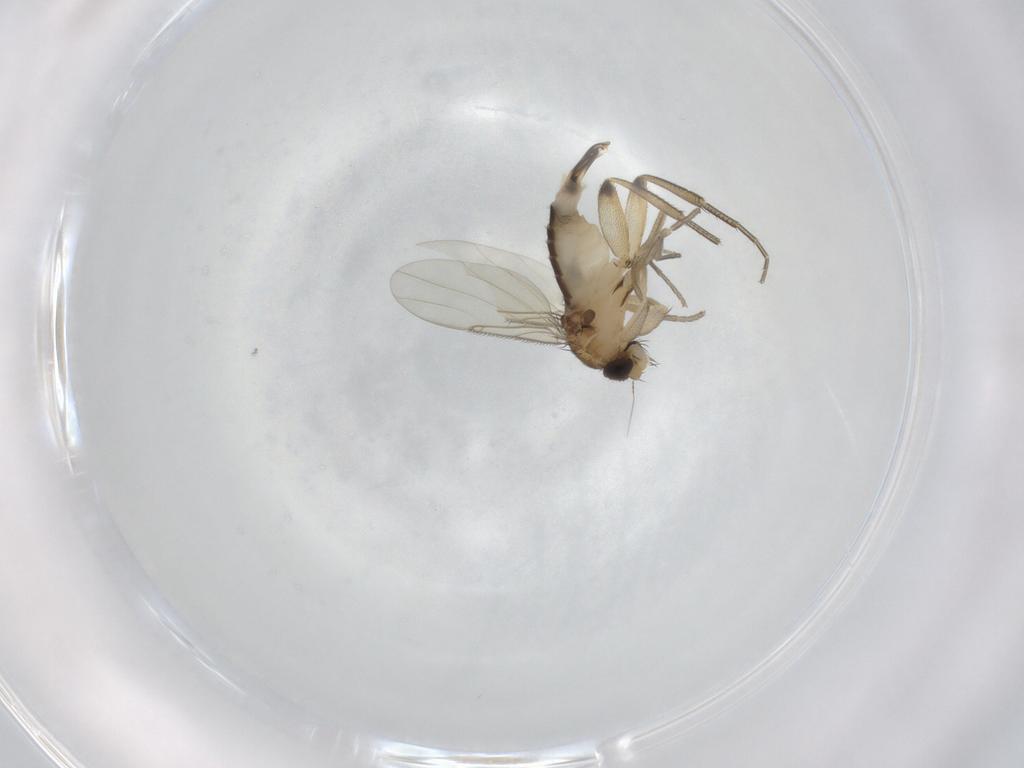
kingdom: Animalia
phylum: Arthropoda
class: Insecta
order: Diptera
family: Phoridae
